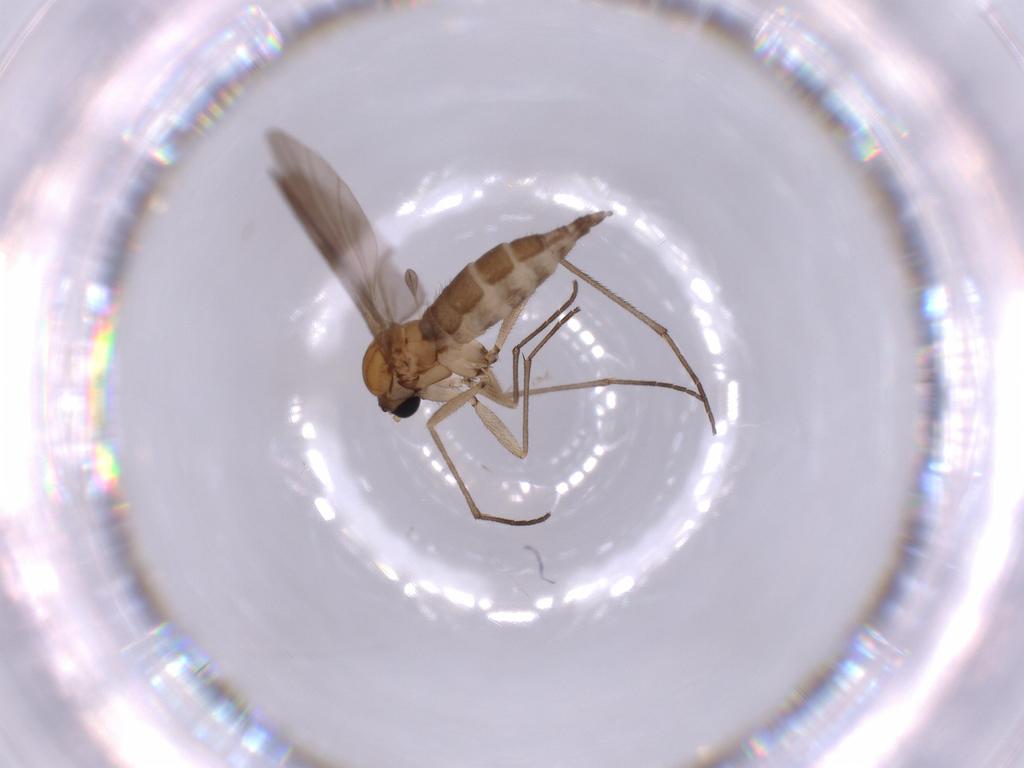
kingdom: Animalia
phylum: Arthropoda
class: Insecta
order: Diptera
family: Sciaridae
